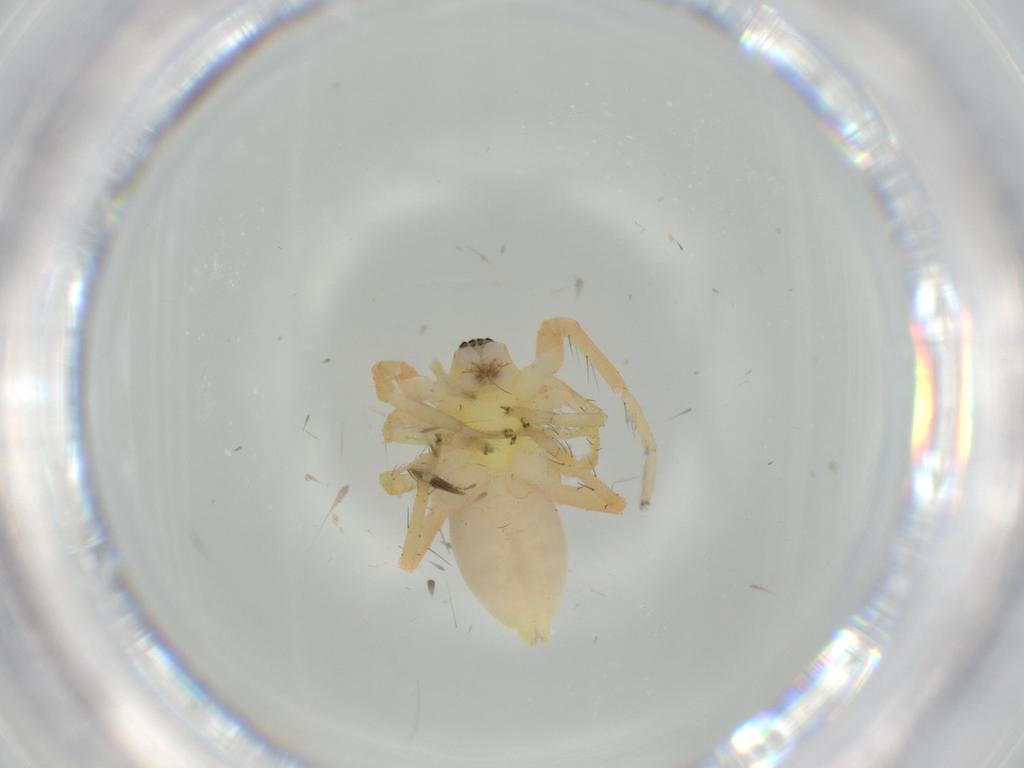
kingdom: Animalia
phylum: Arthropoda
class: Arachnida
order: Araneae
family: Anyphaenidae
